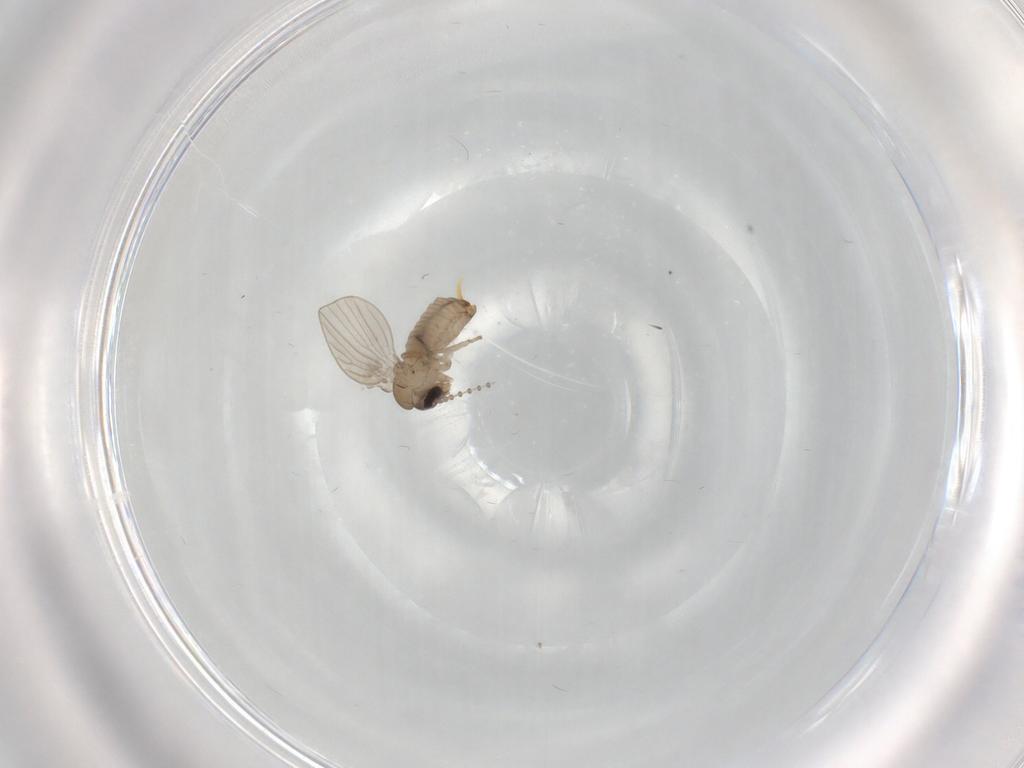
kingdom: Animalia
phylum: Arthropoda
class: Insecta
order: Diptera
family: Psychodidae
